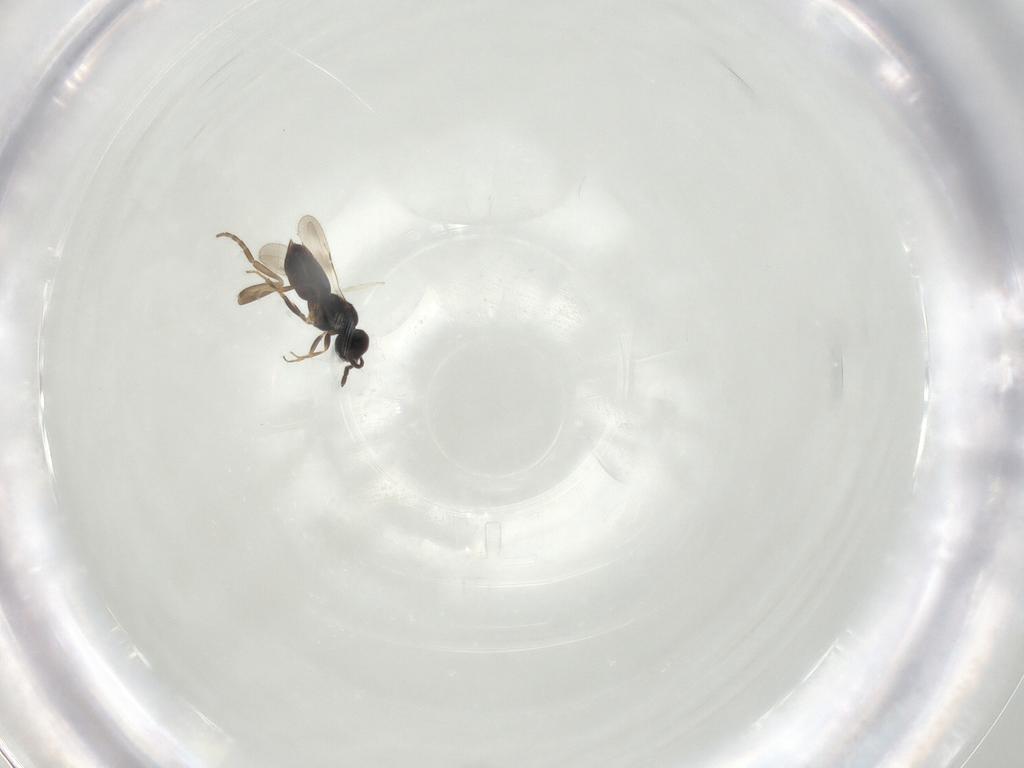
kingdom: Animalia
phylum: Arthropoda
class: Insecta
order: Hymenoptera
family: Ceraphronidae
